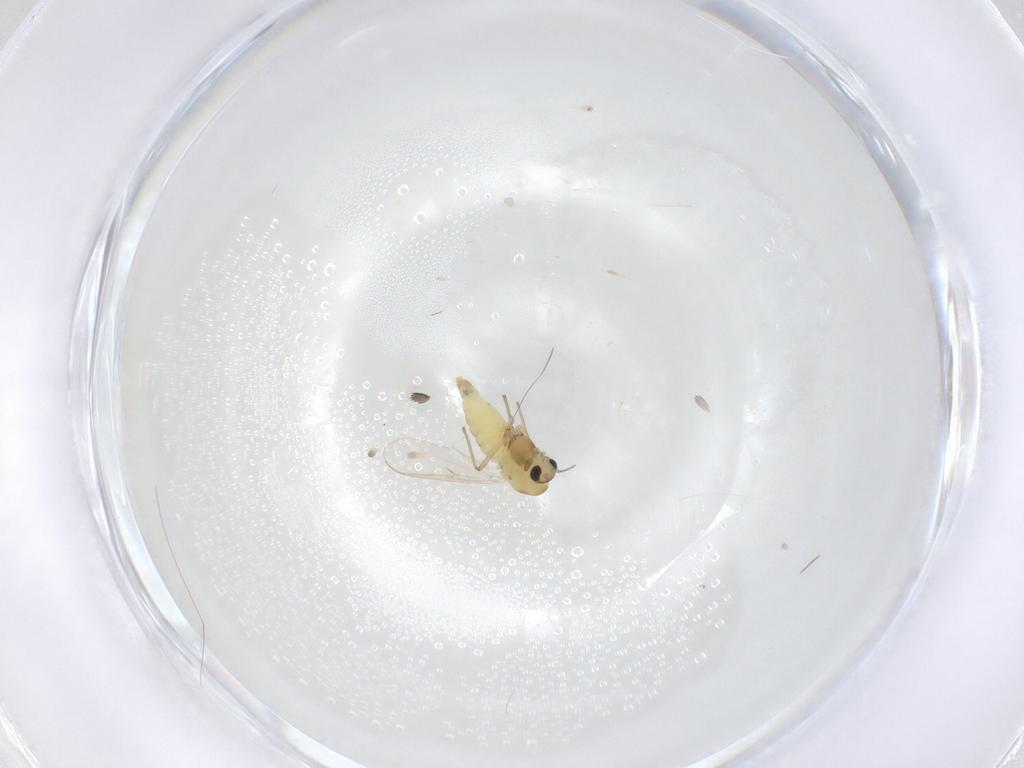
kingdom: Animalia
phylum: Arthropoda
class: Insecta
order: Diptera
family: Chironomidae
